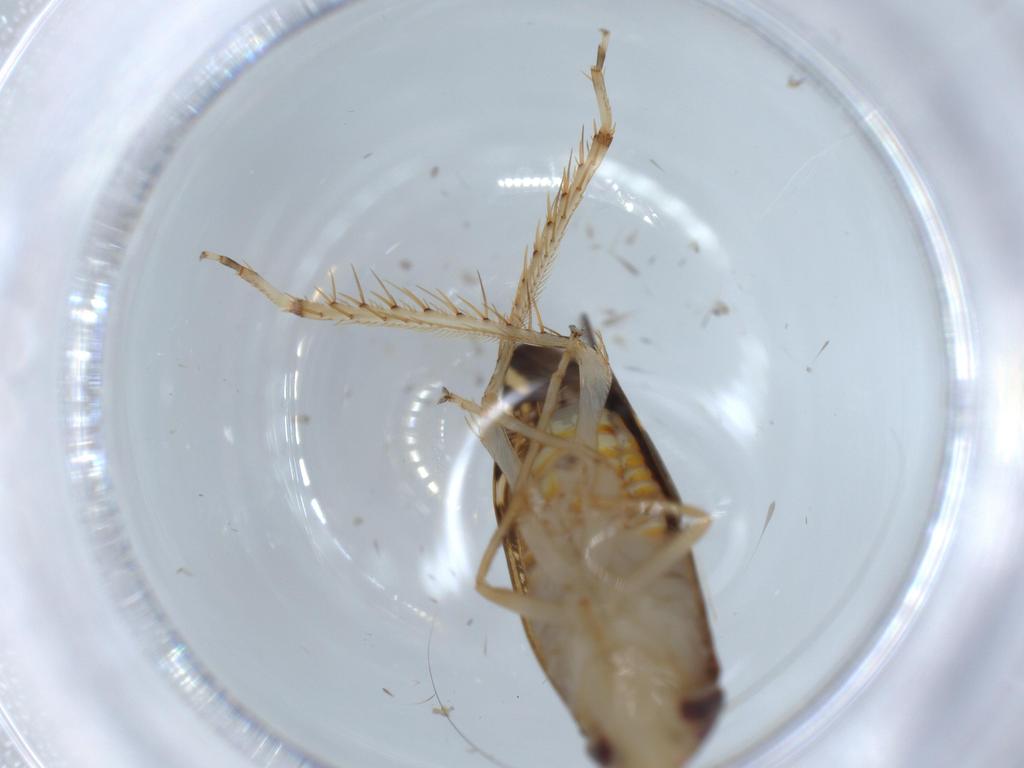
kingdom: Animalia
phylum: Arthropoda
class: Insecta
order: Hemiptera
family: Cicadellidae
